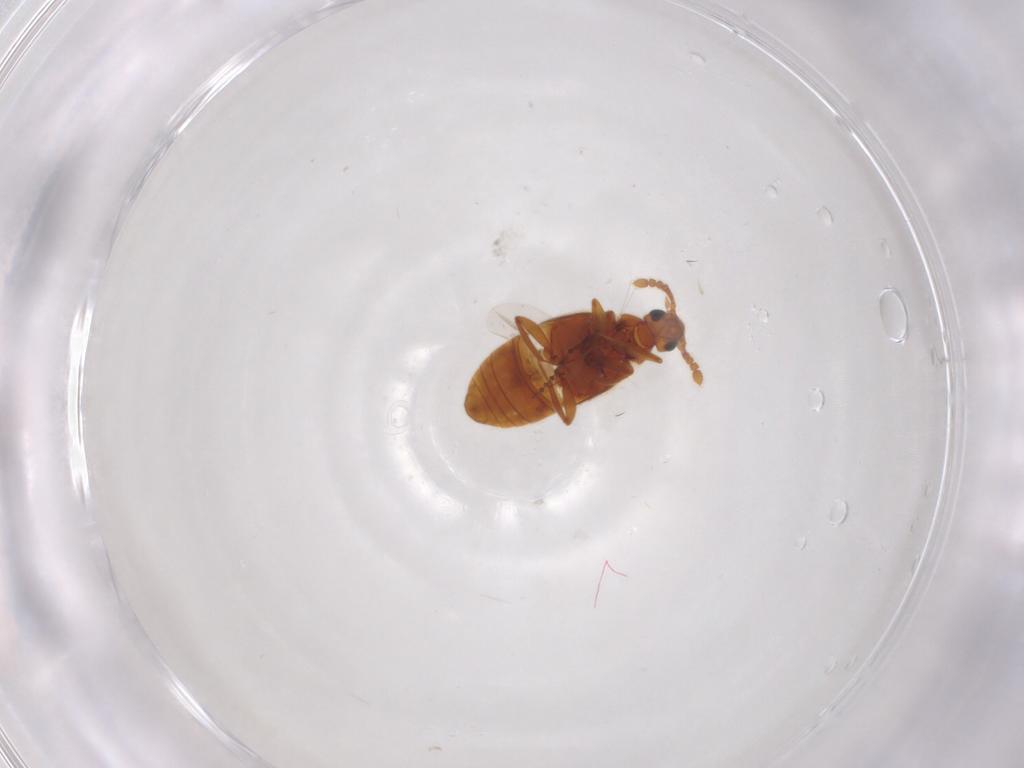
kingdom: Animalia
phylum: Arthropoda
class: Insecta
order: Coleoptera
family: Staphylinidae
